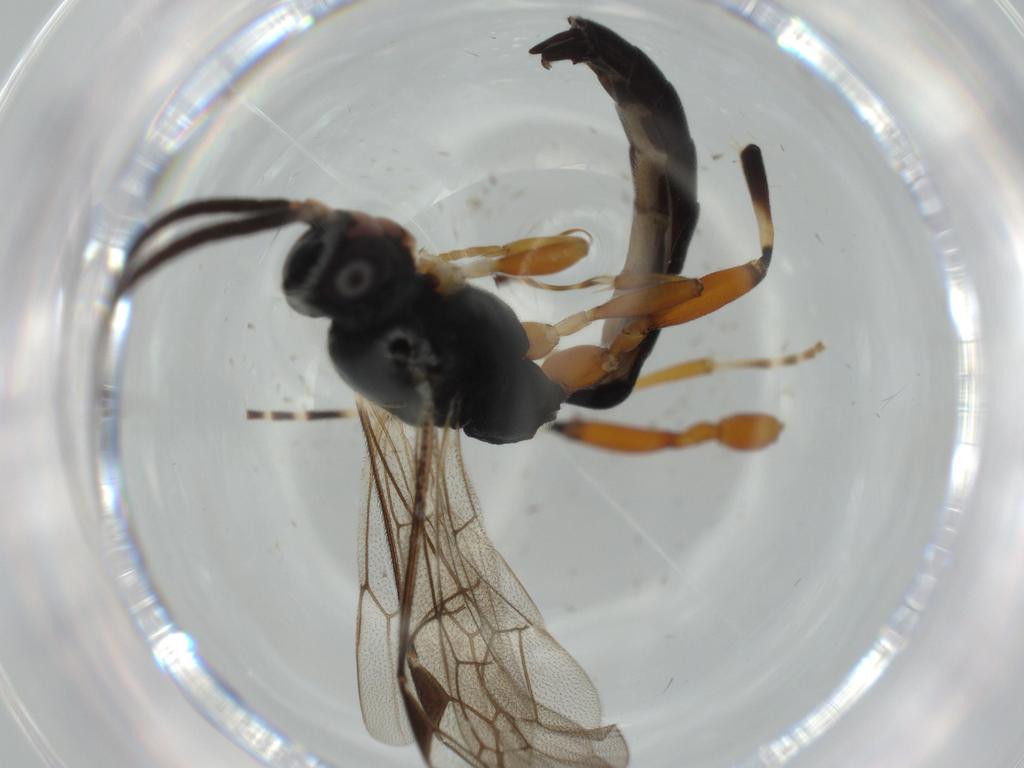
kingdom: Animalia
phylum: Arthropoda
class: Insecta
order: Hymenoptera
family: Ichneumonidae
